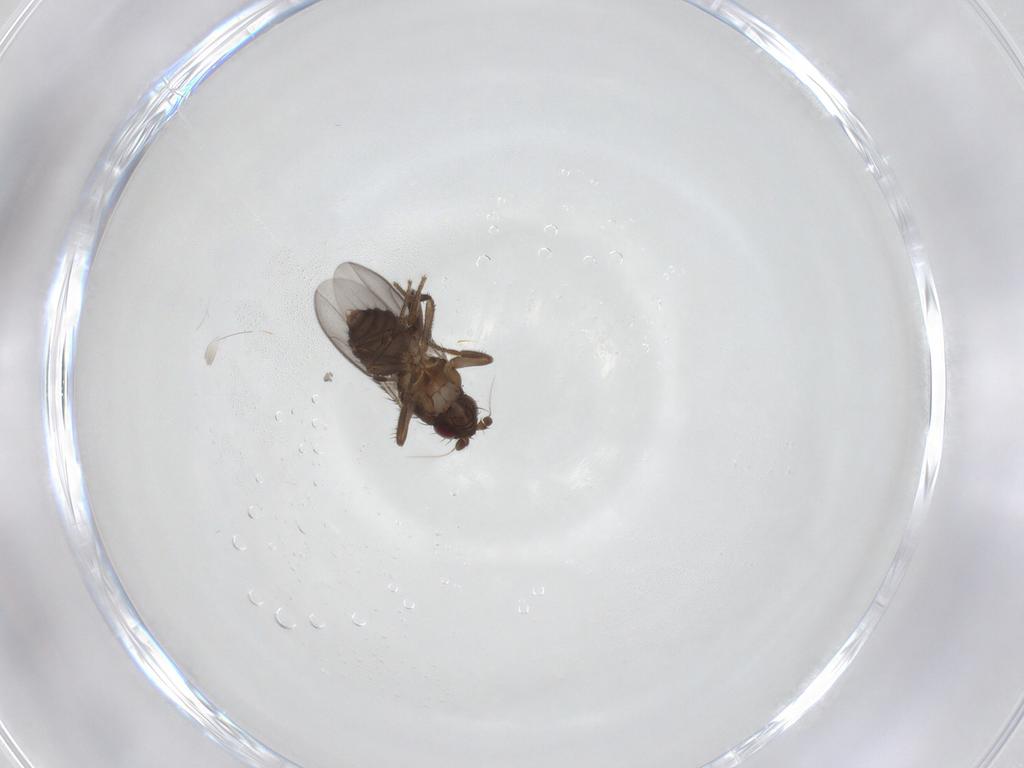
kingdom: Animalia
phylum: Arthropoda
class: Insecta
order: Diptera
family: Sphaeroceridae
